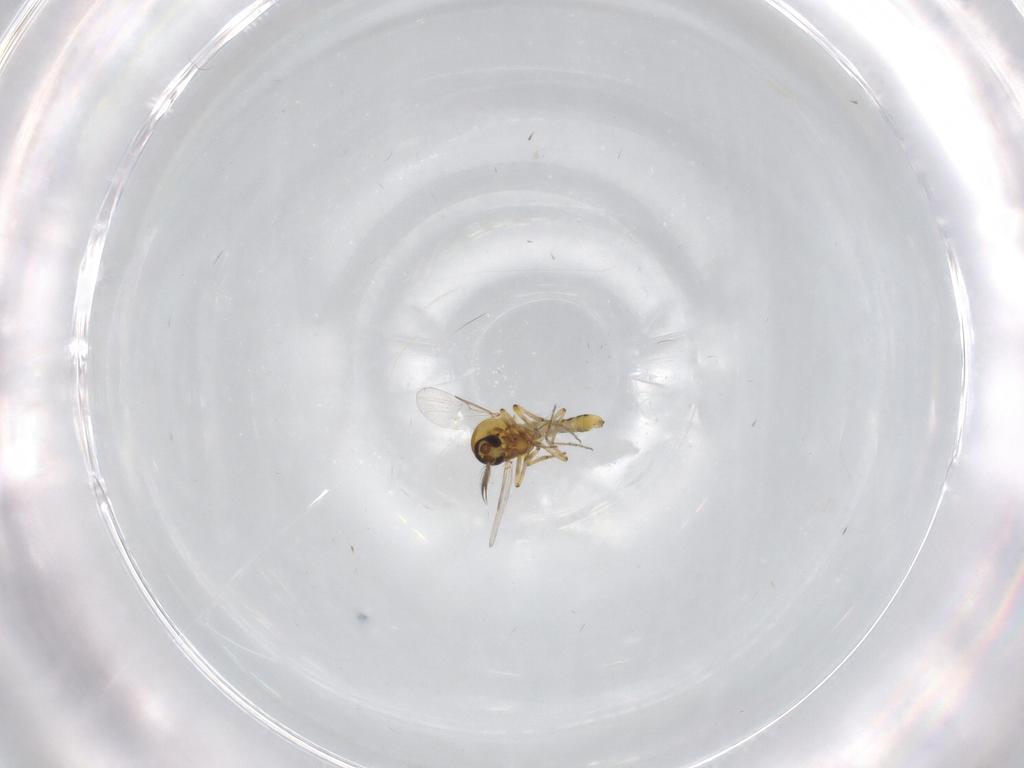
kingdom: Animalia
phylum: Arthropoda
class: Insecta
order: Diptera
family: Ceratopogonidae
